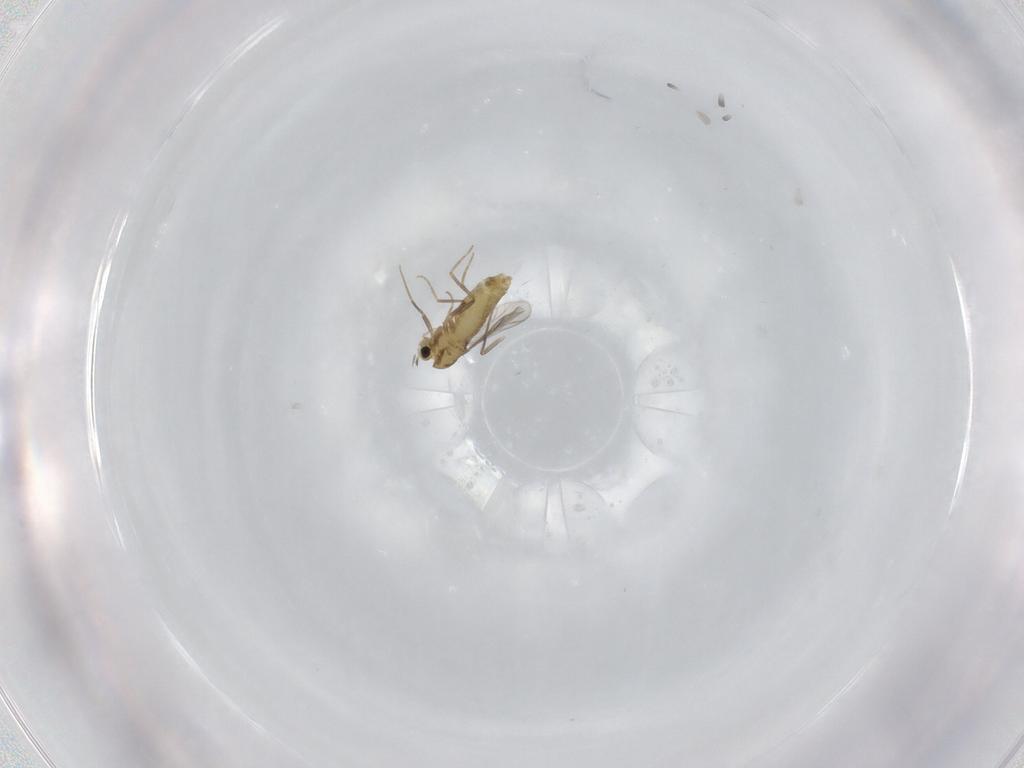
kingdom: Animalia
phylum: Arthropoda
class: Insecta
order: Diptera
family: Chironomidae
